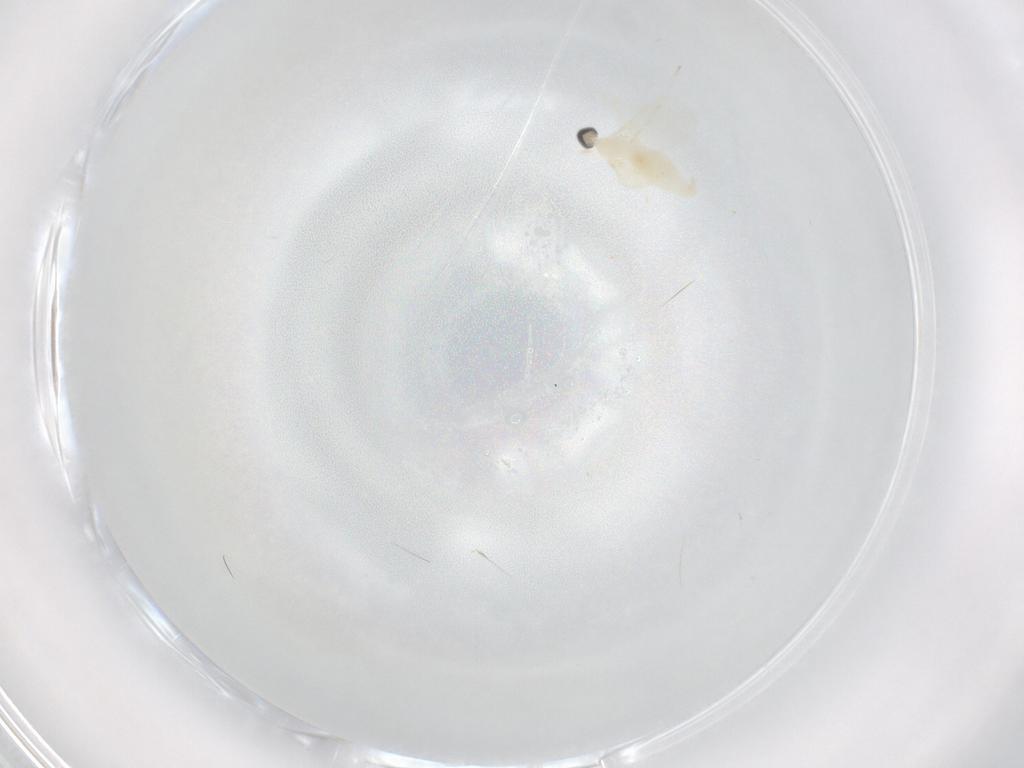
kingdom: Animalia
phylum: Arthropoda
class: Insecta
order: Diptera
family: Cecidomyiidae
